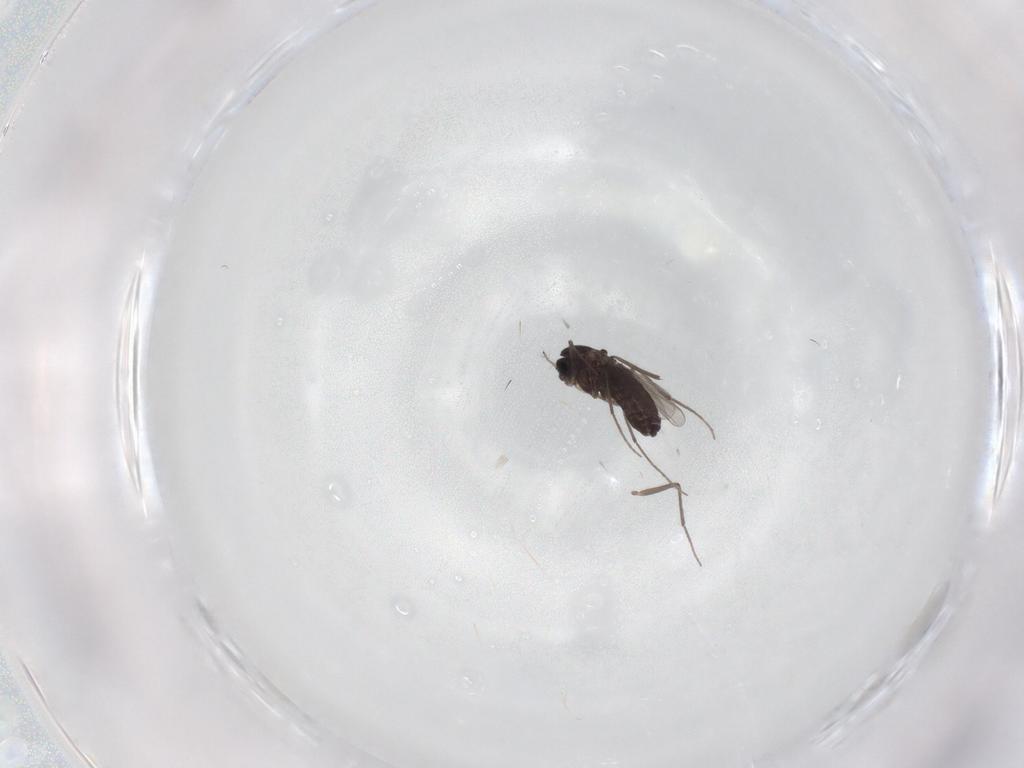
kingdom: Animalia
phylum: Arthropoda
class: Insecta
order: Diptera
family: Chironomidae
